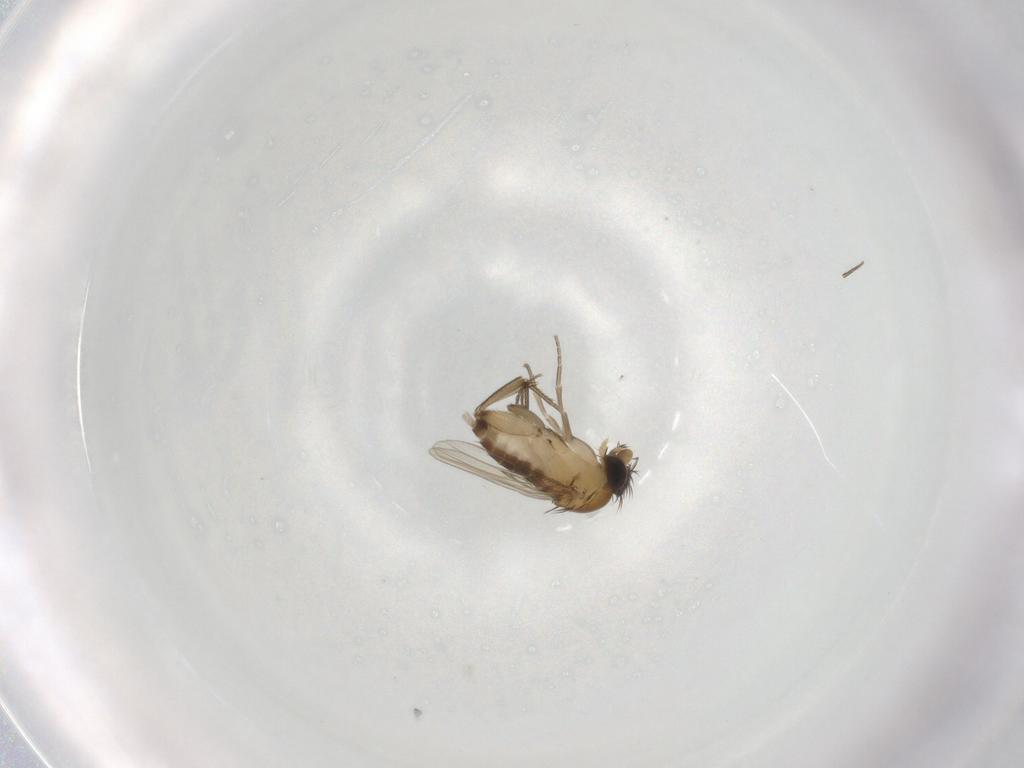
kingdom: Animalia
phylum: Arthropoda
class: Insecta
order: Diptera
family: Phoridae
